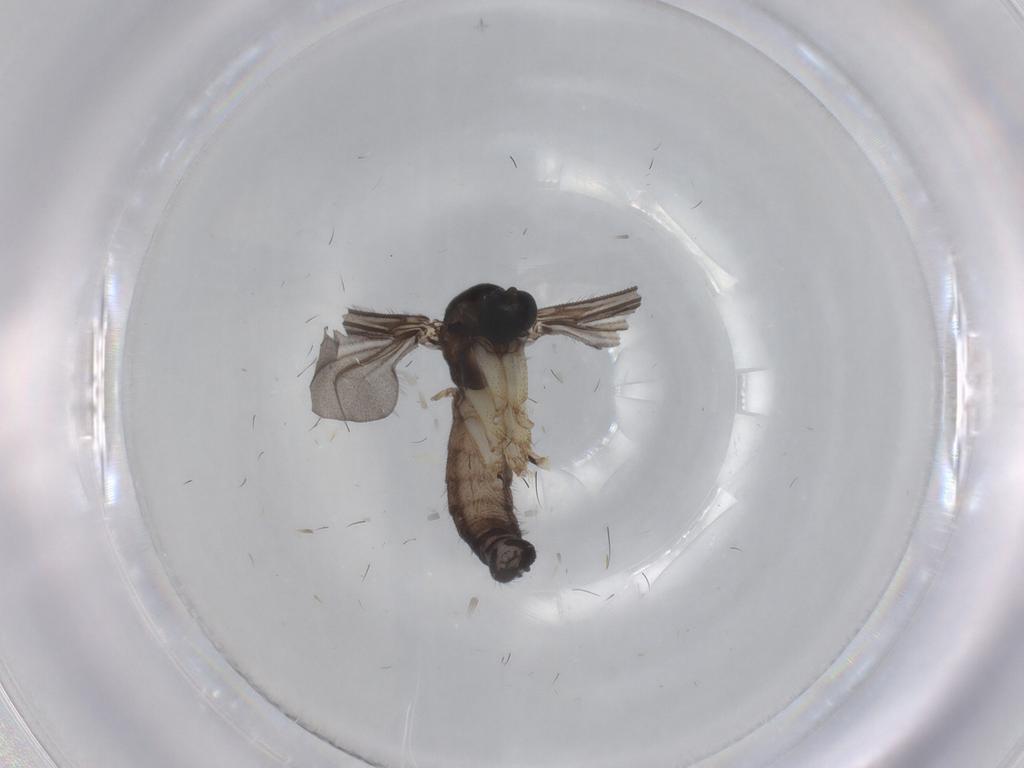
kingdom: Animalia
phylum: Arthropoda
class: Insecta
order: Diptera
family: Sciaridae
